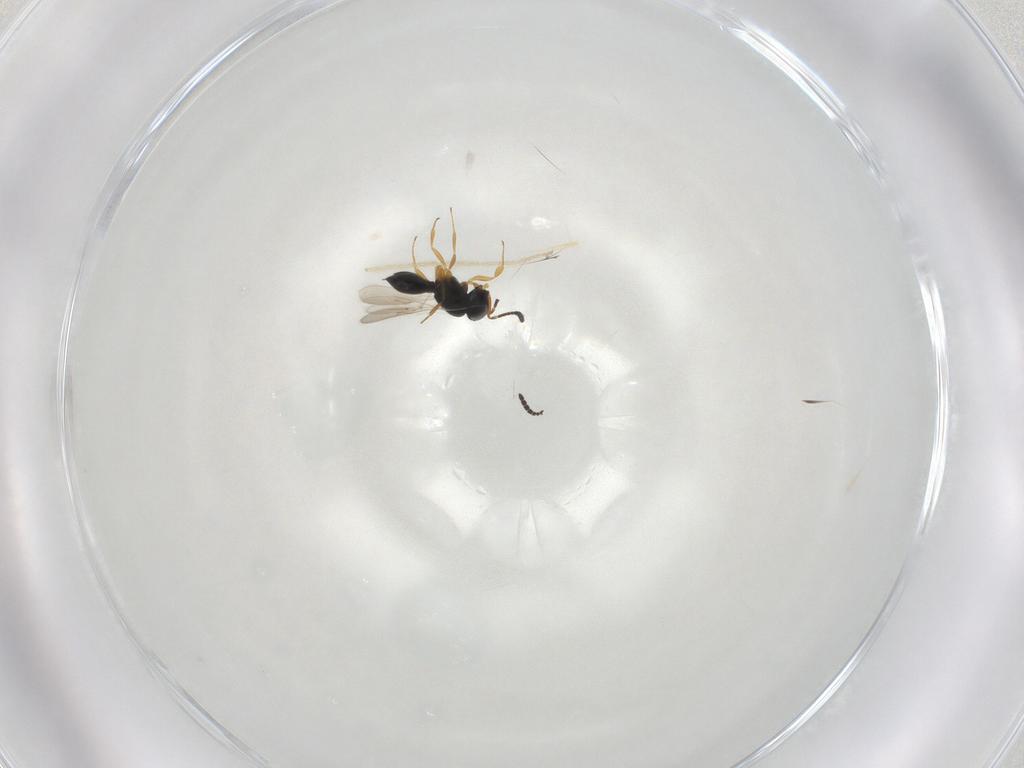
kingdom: Animalia
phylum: Arthropoda
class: Insecta
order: Hymenoptera
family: Scelionidae
